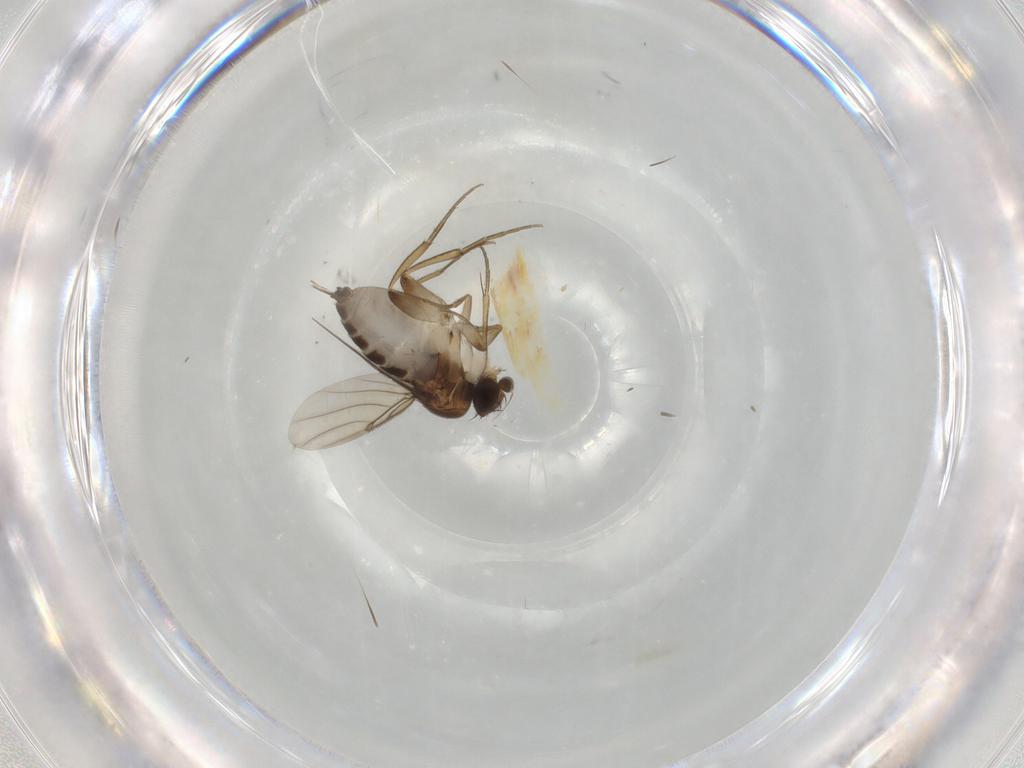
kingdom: Animalia
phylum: Arthropoda
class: Insecta
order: Diptera
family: Phoridae
